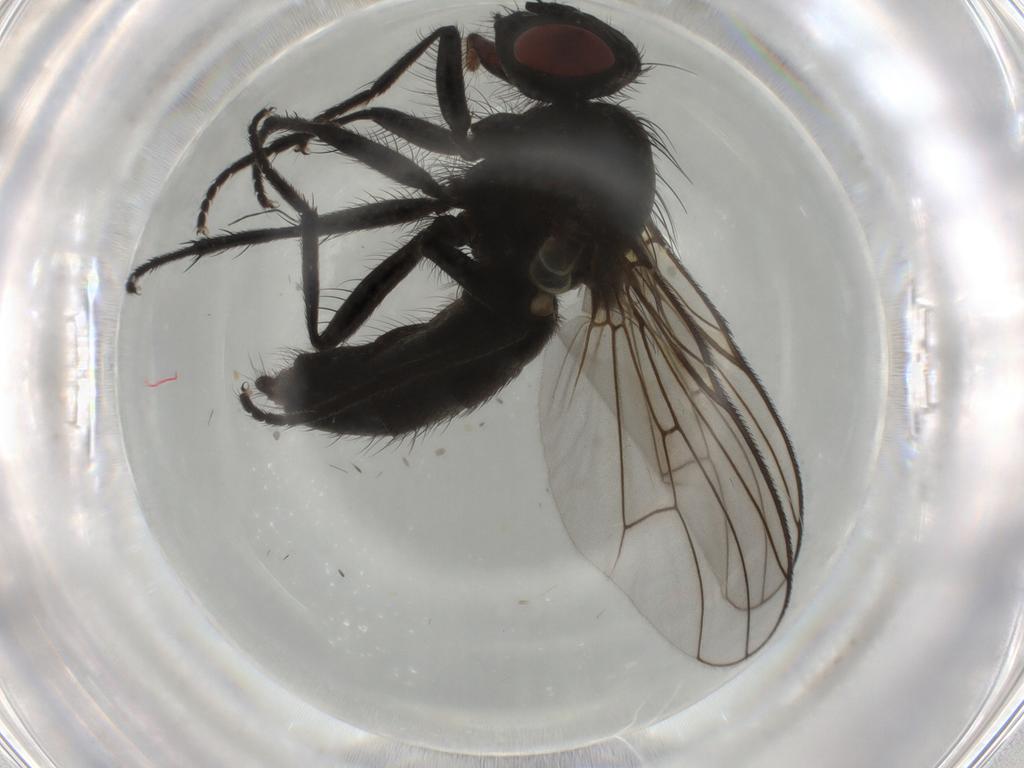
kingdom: Animalia
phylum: Arthropoda
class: Insecta
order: Diptera
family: Muscidae
